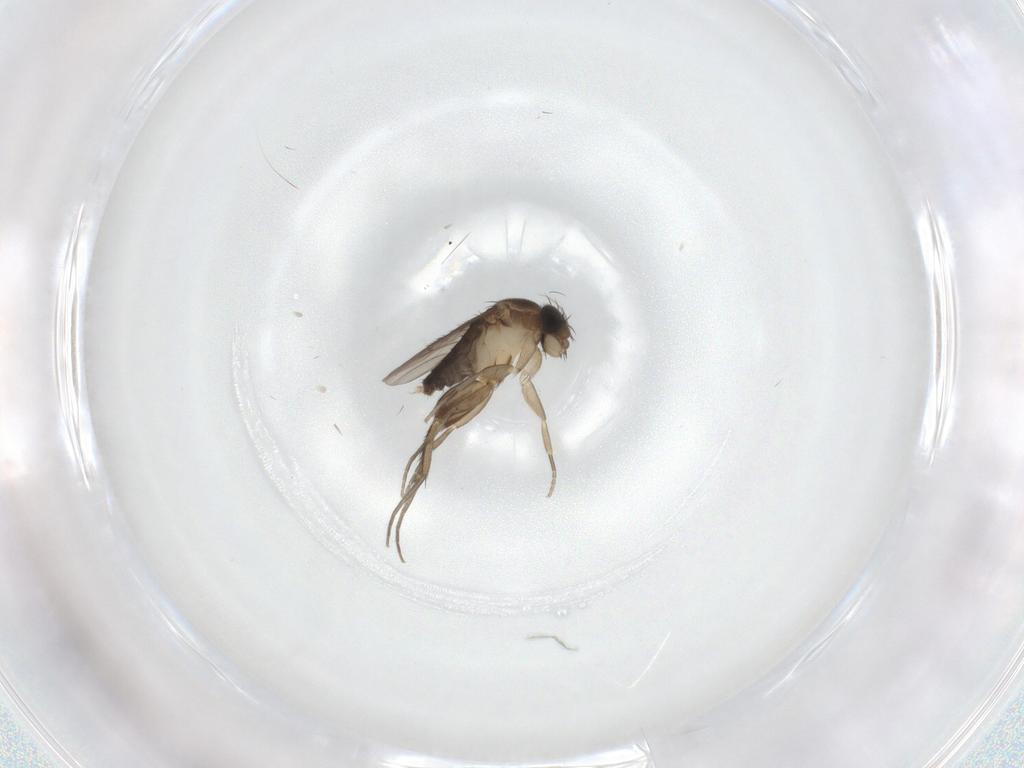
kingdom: Animalia
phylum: Arthropoda
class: Insecta
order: Diptera
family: Phoridae
